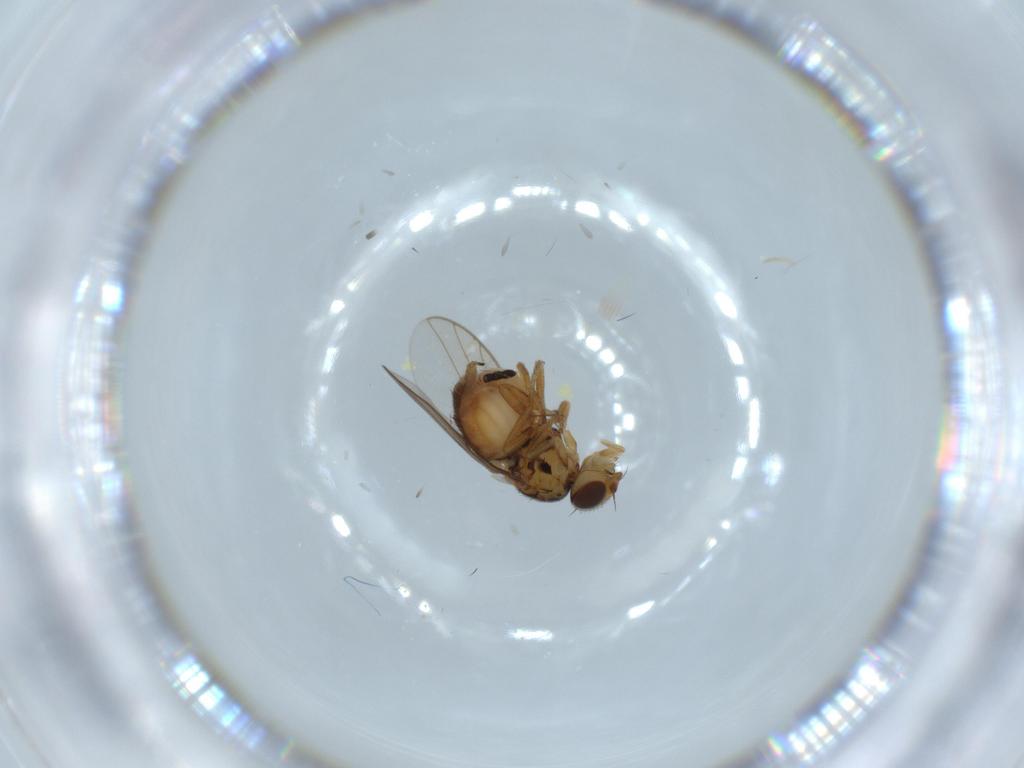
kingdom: Animalia
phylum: Arthropoda
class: Insecta
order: Diptera
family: Chloropidae
